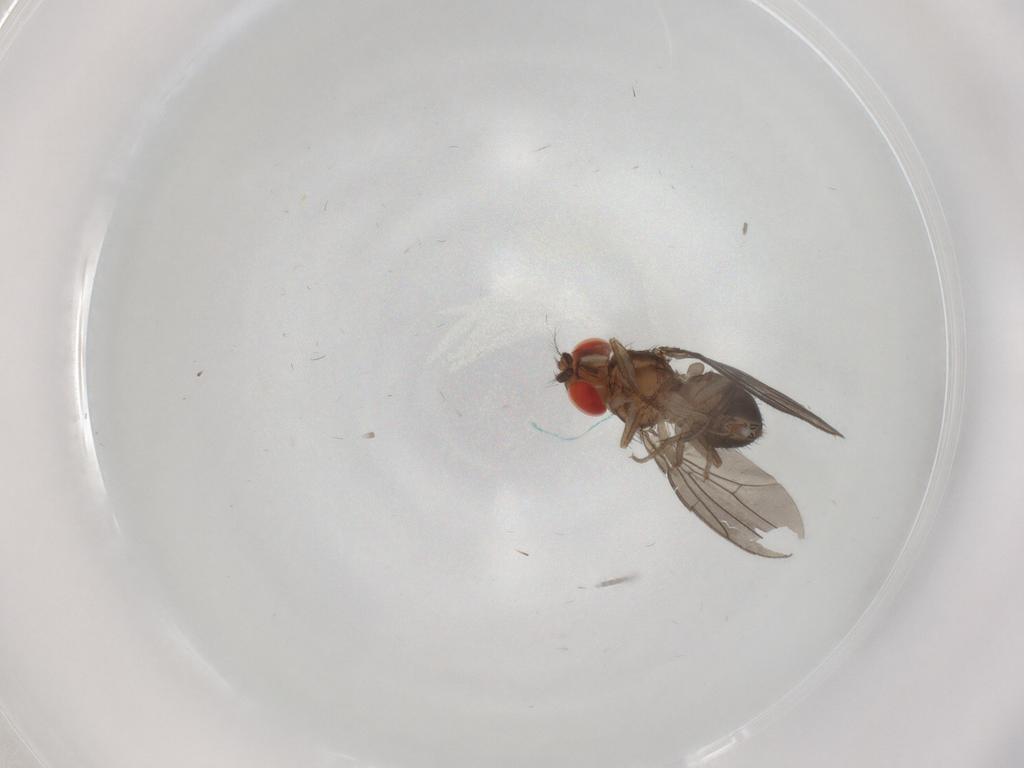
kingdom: Animalia
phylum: Arthropoda
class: Insecta
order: Diptera
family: Drosophilidae
